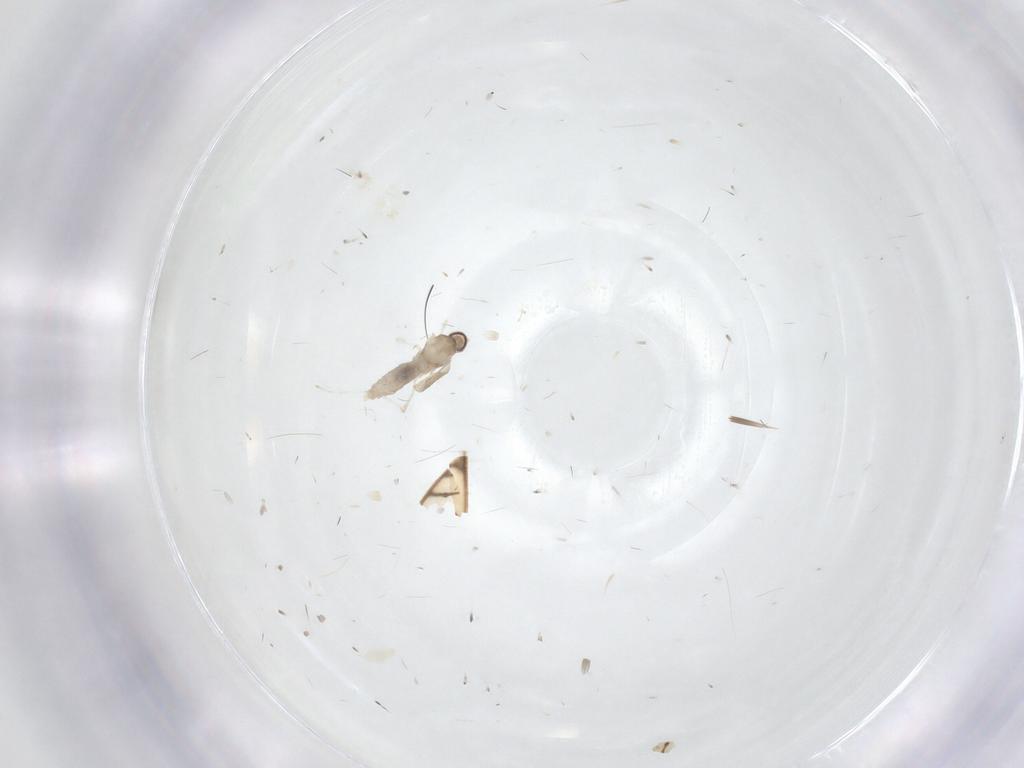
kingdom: Animalia
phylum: Arthropoda
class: Insecta
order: Diptera
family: Cecidomyiidae
